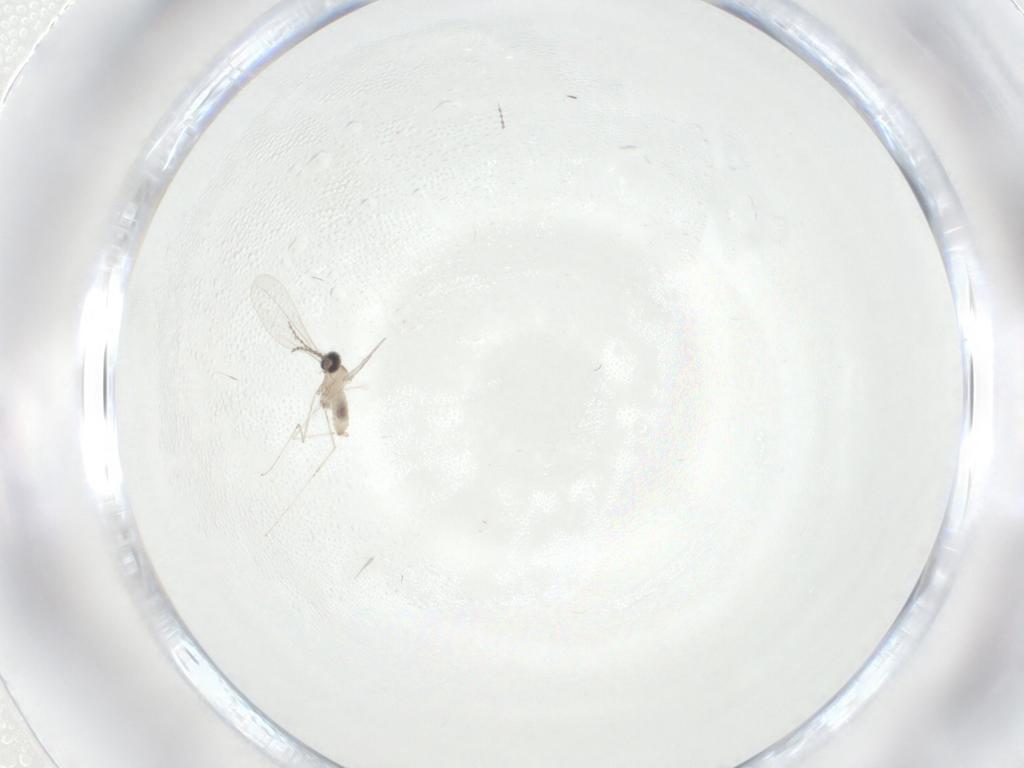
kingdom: Animalia
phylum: Arthropoda
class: Insecta
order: Diptera
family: Cecidomyiidae
